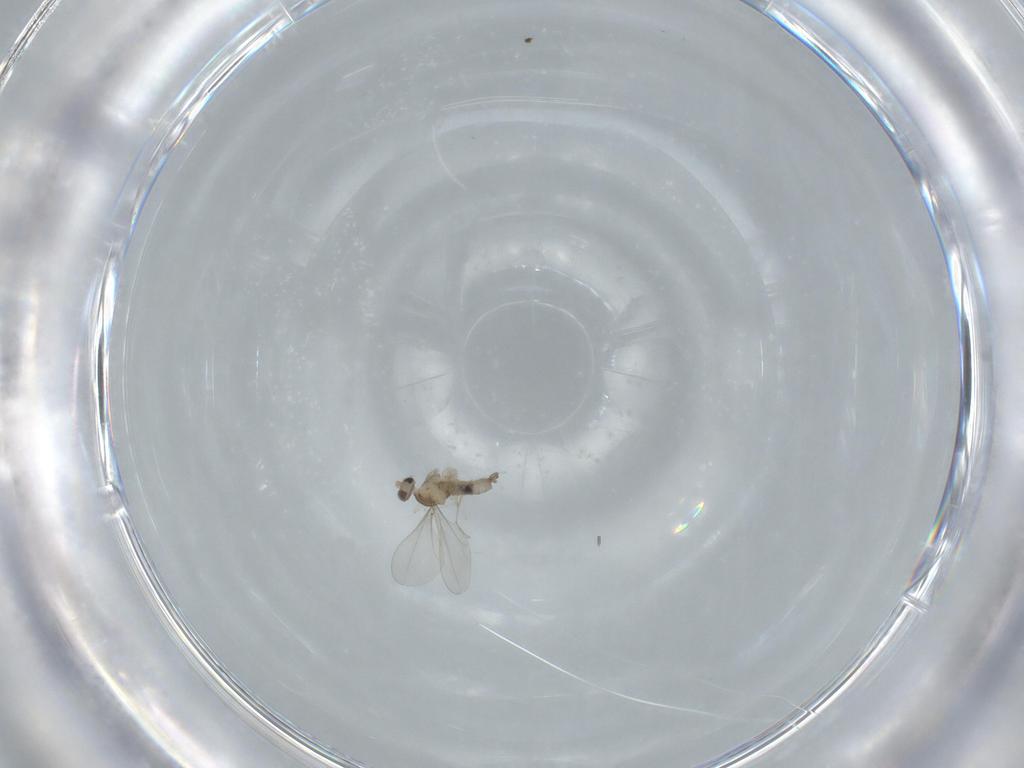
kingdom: Animalia
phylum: Arthropoda
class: Insecta
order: Diptera
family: Cecidomyiidae
